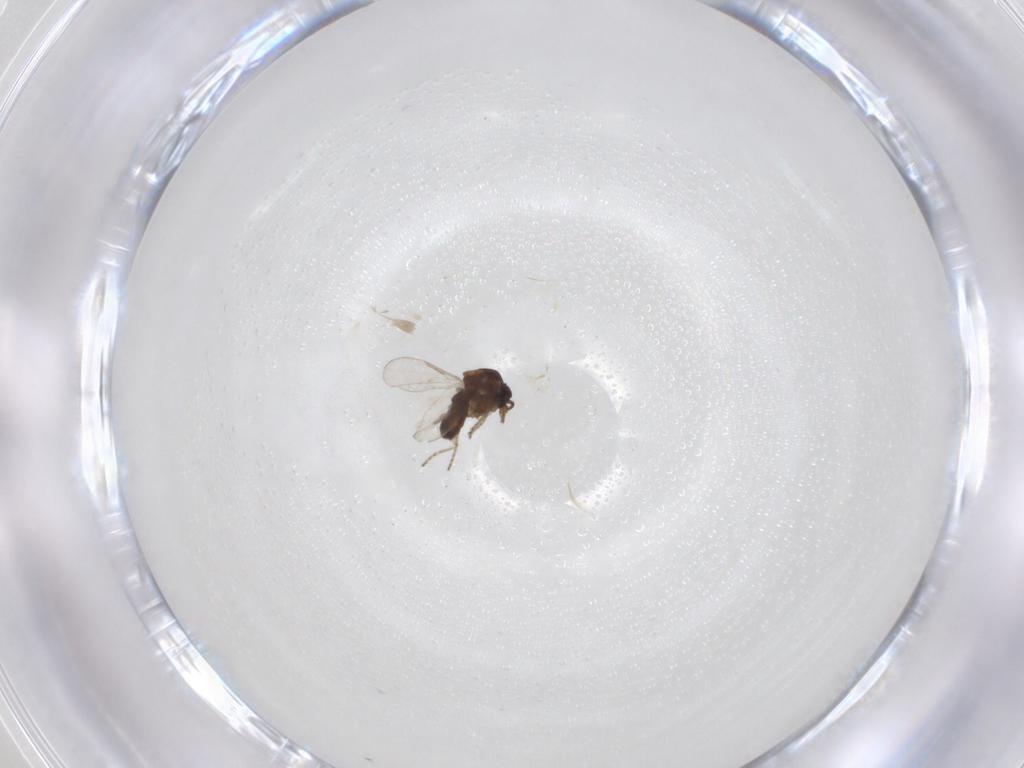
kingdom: Animalia
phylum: Arthropoda
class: Insecta
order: Diptera
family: Ceratopogonidae
